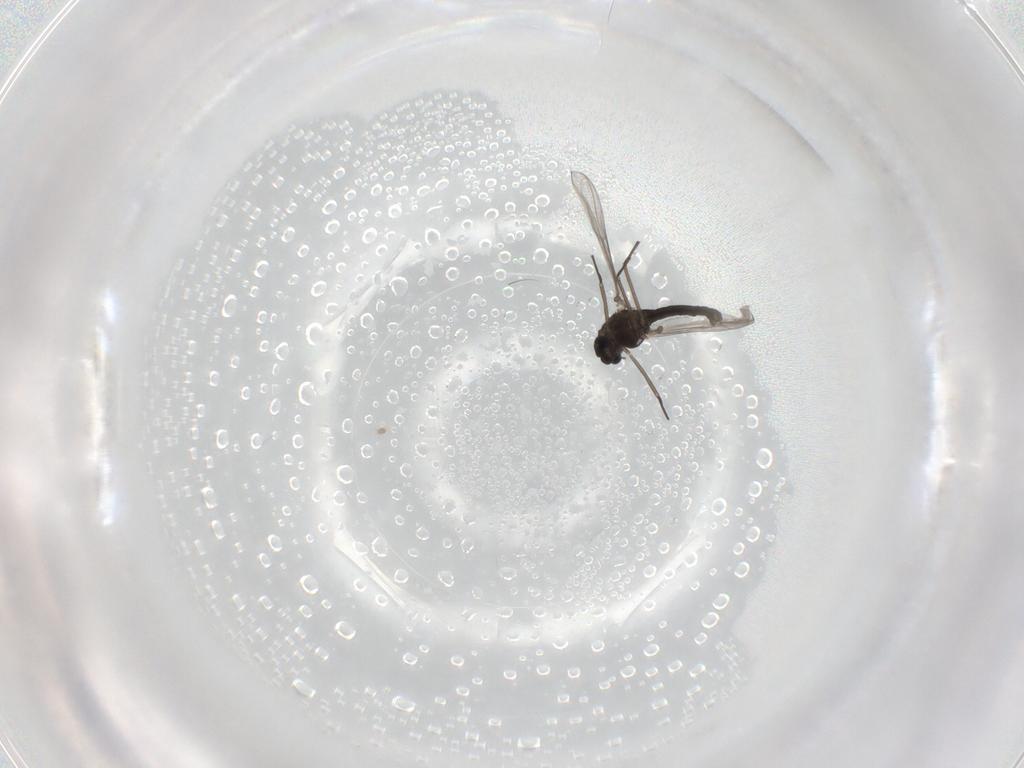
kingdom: Animalia
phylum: Arthropoda
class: Insecta
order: Diptera
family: Chironomidae
